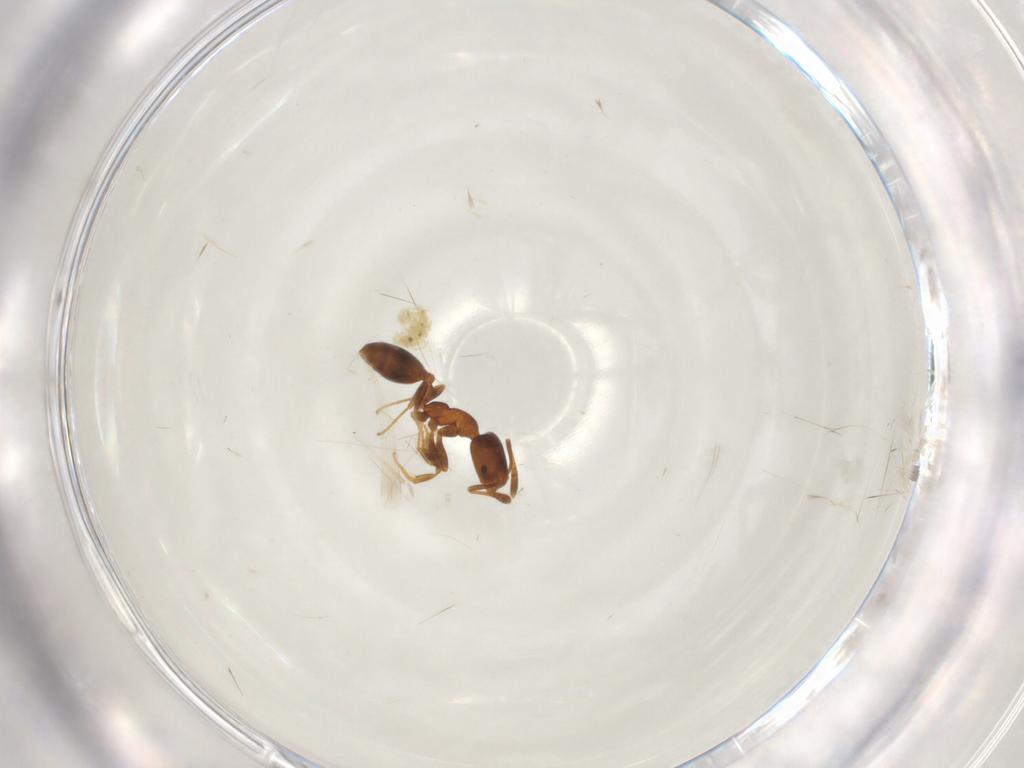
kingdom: Animalia
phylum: Arthropoda
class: Insecta
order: Hymenoptera
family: Formicidae
